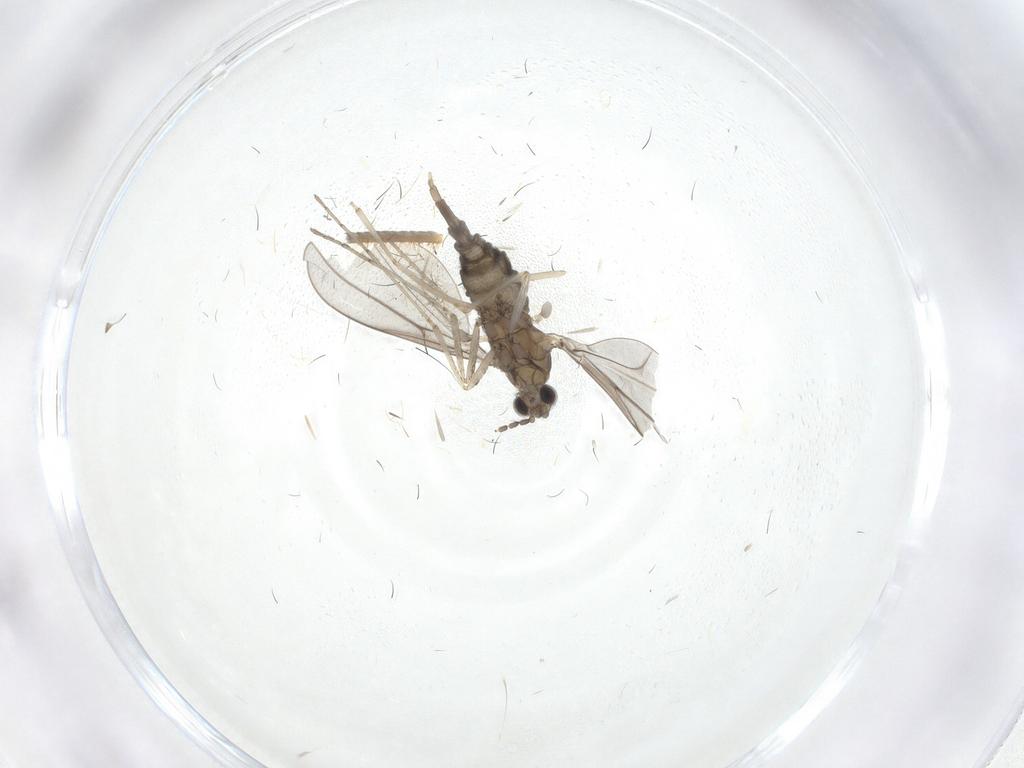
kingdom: Animalia
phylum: Arthropoda
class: Insecta
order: Diptera
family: Cecidomyiidae
